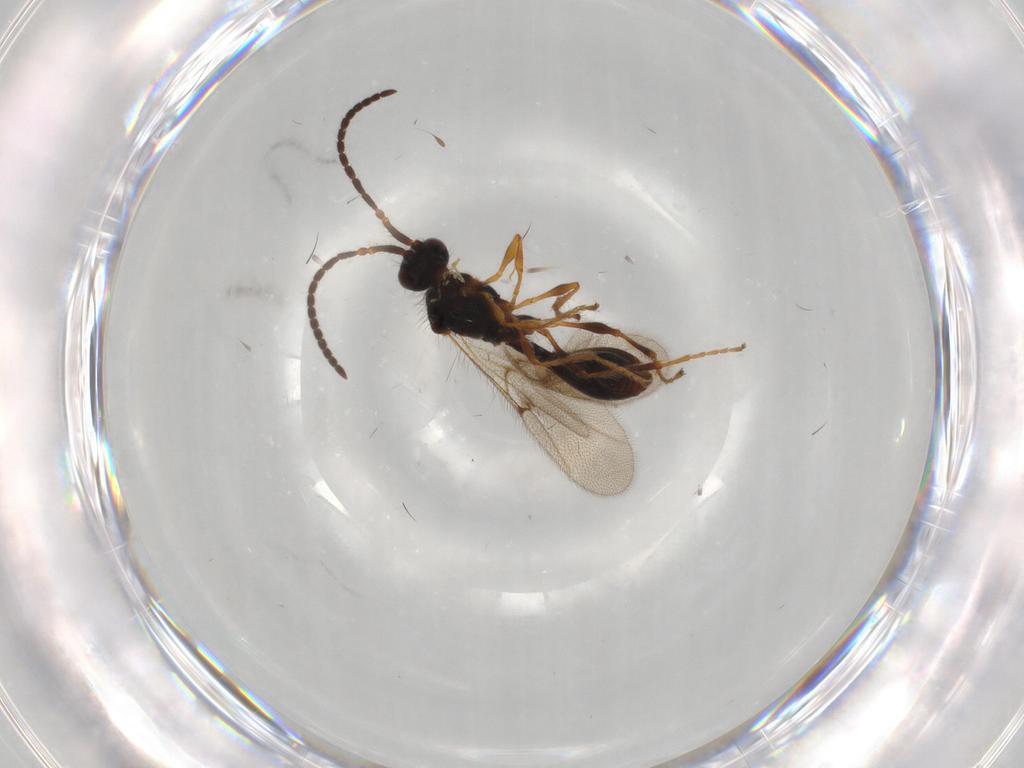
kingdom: Animalia
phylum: Arthropoda
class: Insecta
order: Hymenoptera
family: Diapriidae
